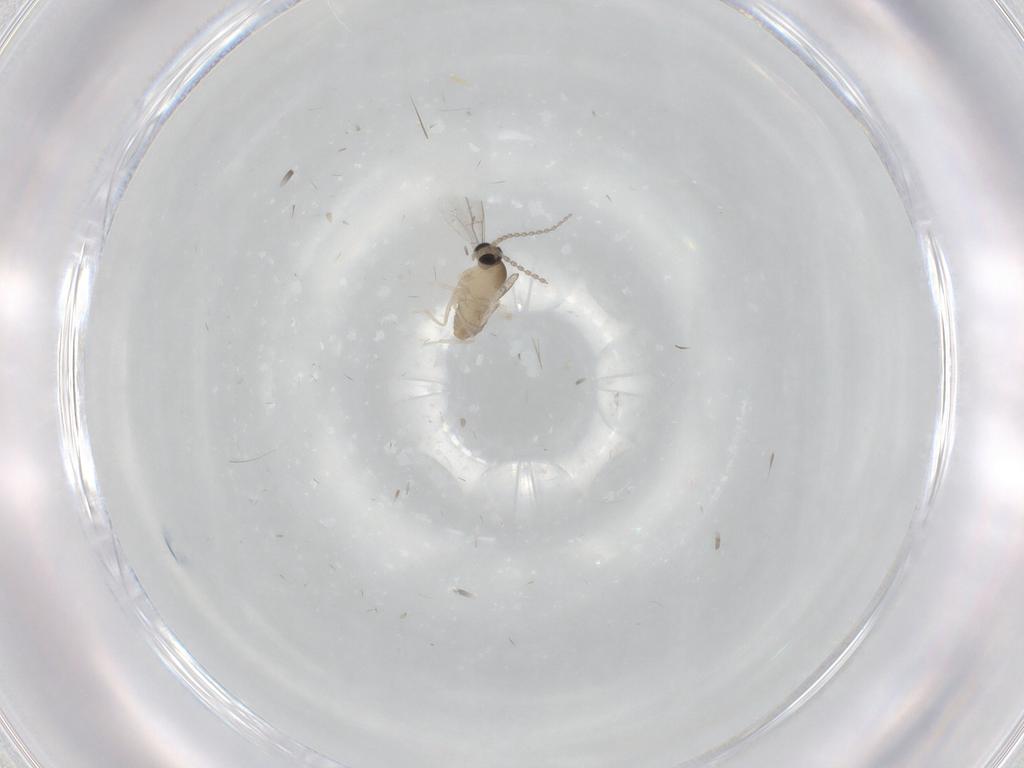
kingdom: Animalia
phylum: Arthropoda
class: Insecta
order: Diptera
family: Cecidomyiidae
